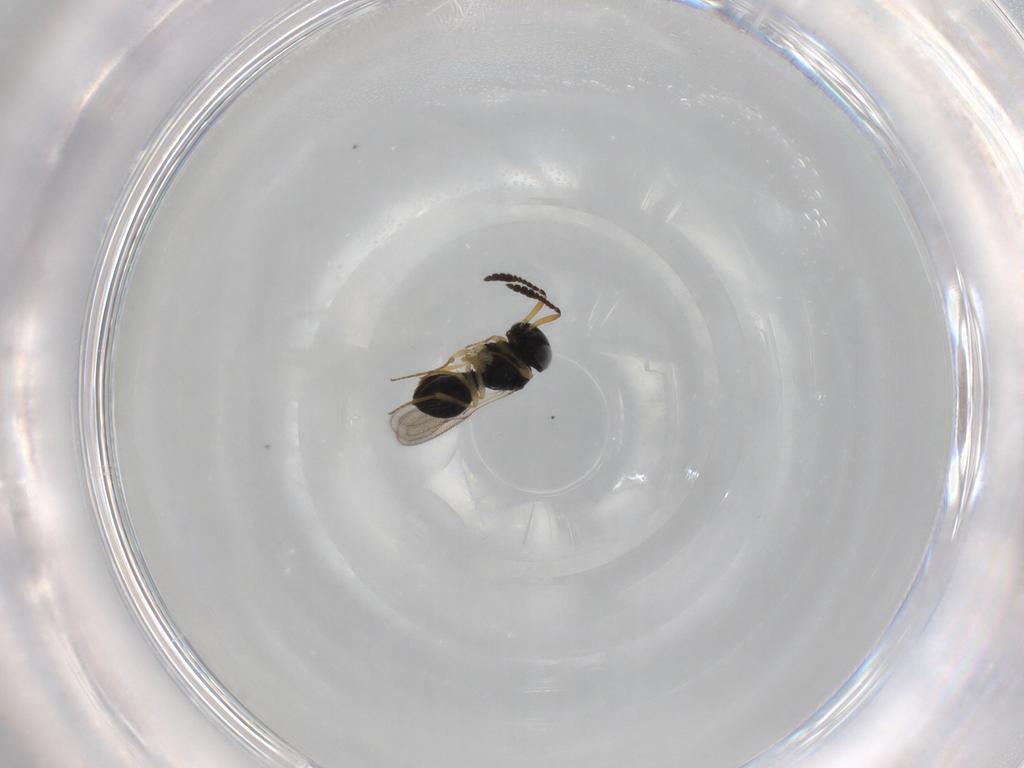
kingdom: Animalia
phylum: Arthropoda
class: Insecta
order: Hymenoptera
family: Scelionidae
